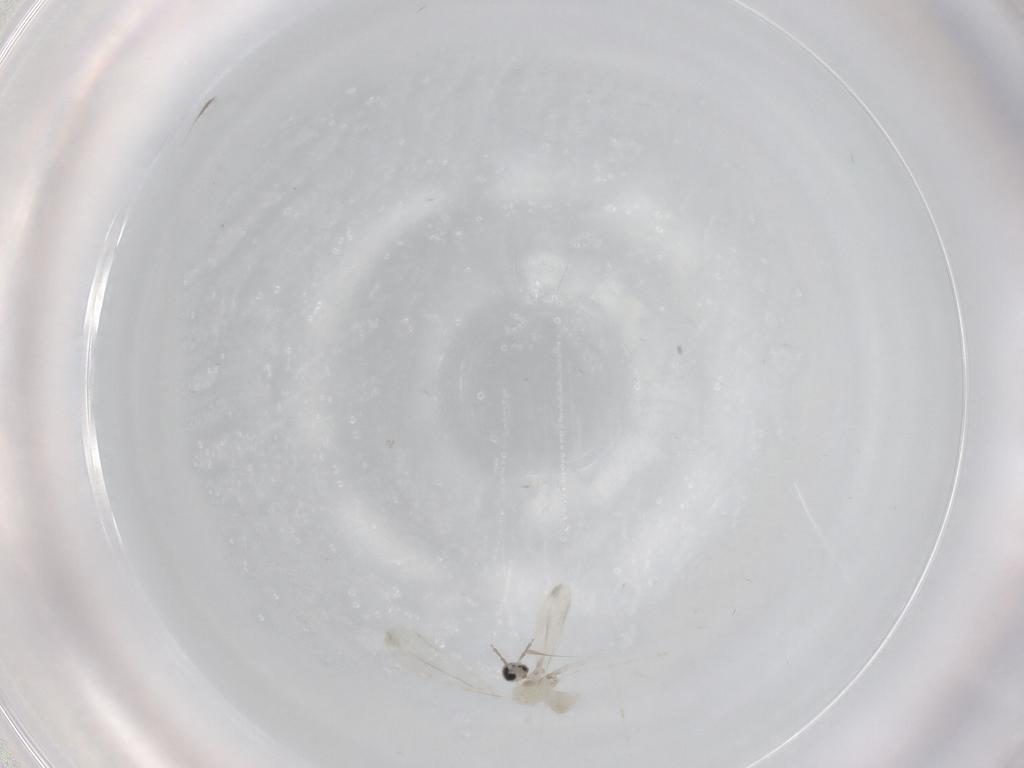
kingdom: Animalia
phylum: Arthropoda
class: Insecta
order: Diptera
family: Cecidomyiidae
